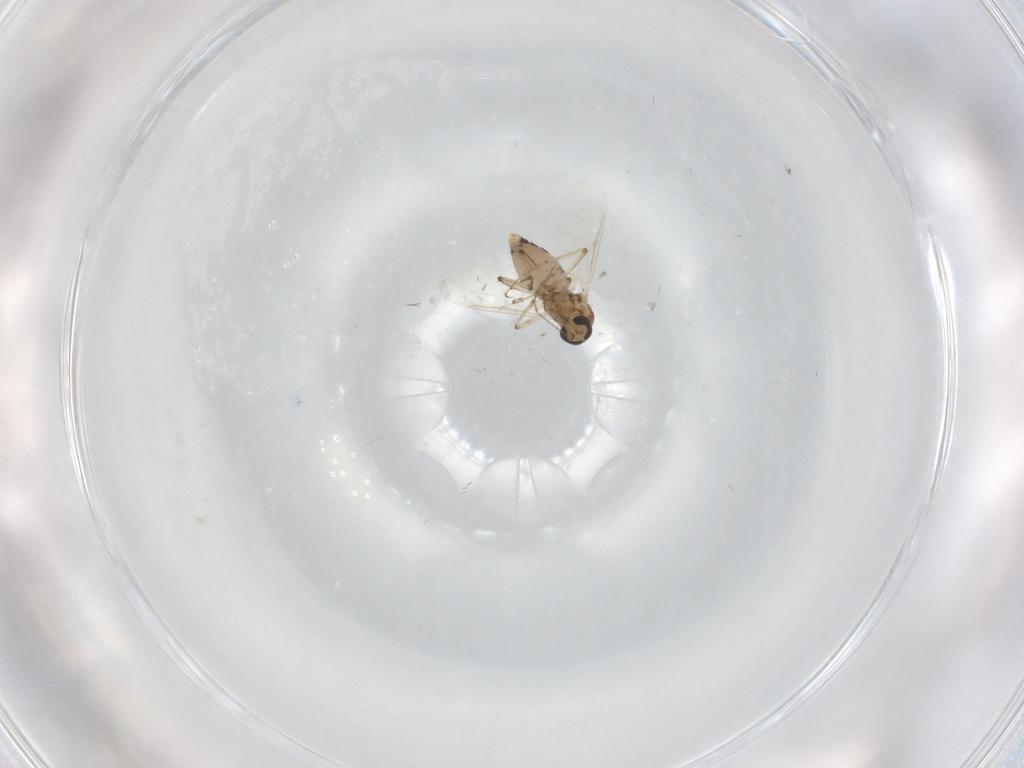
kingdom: Animalia
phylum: Arthropoda
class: Insecta
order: Diptera
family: Ceratopogonidae
